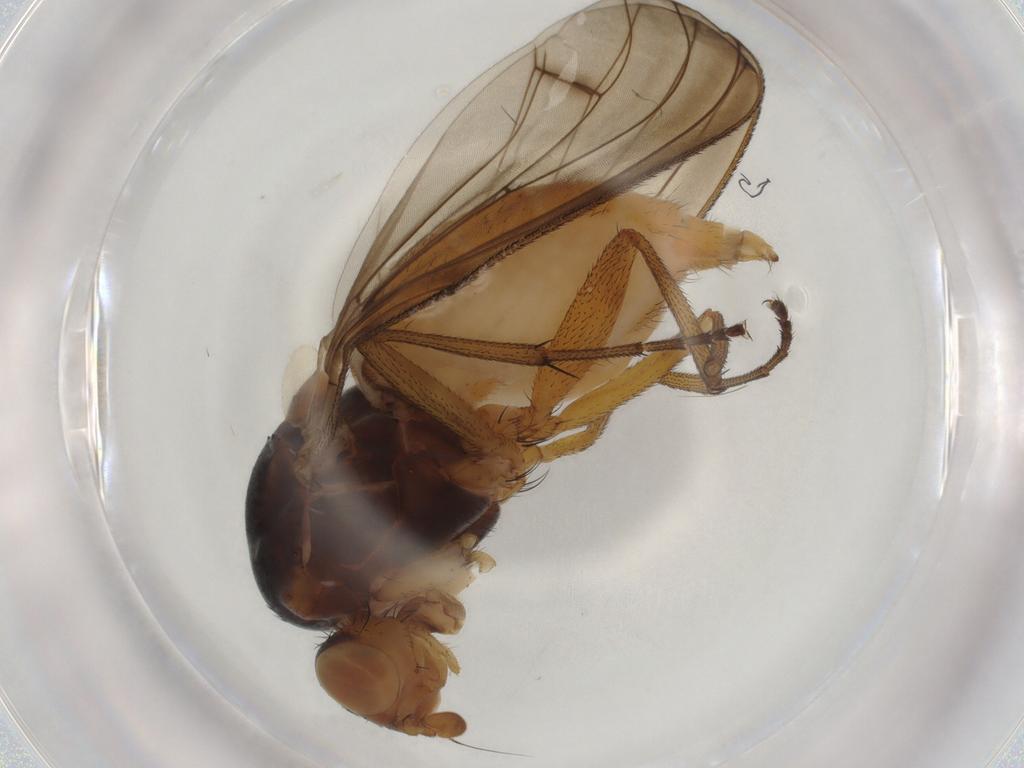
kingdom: Animalia
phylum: Arthropoda
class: Insecta
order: Diptera
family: Heleomyzidae
